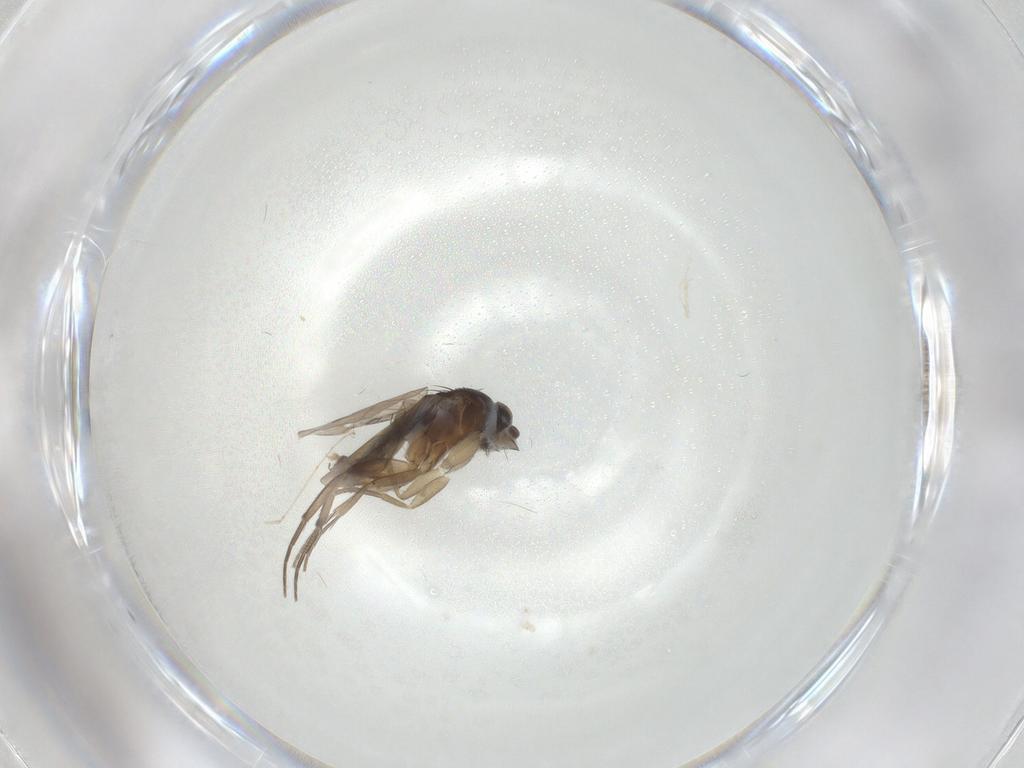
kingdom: Animalia
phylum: Arthropoda
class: Insecta
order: Diptera
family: Phoridae
